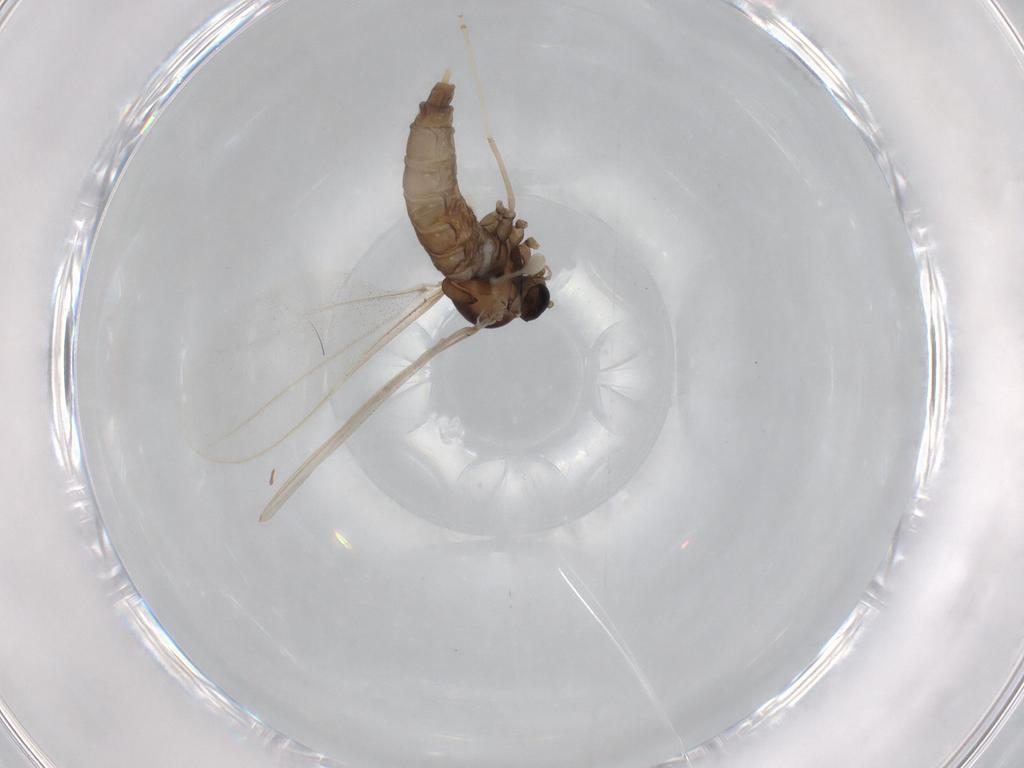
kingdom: Animalia
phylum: Arthropoda
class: Insecta
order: Diptera
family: Cecidomyiidae
